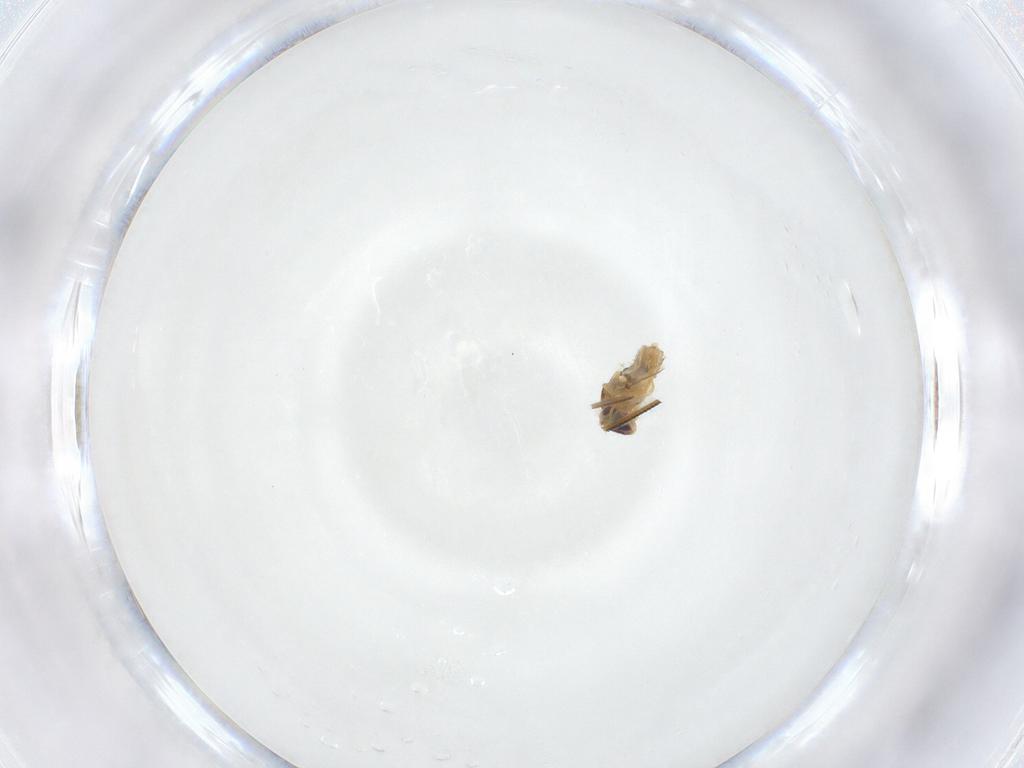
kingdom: Animalia
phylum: Arthropoda
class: Insecta
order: Diptera
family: Chyromyidae
